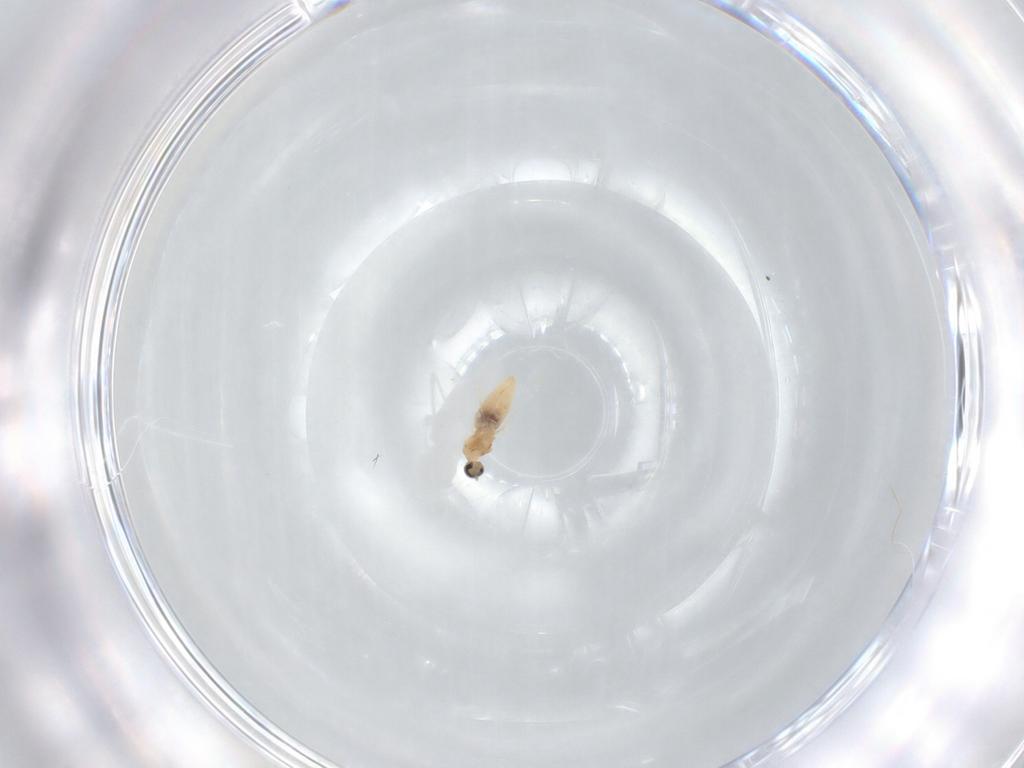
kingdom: Animalia
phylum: Arthropoda
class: Insecta
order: Diptera
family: Cecidomyiidae
